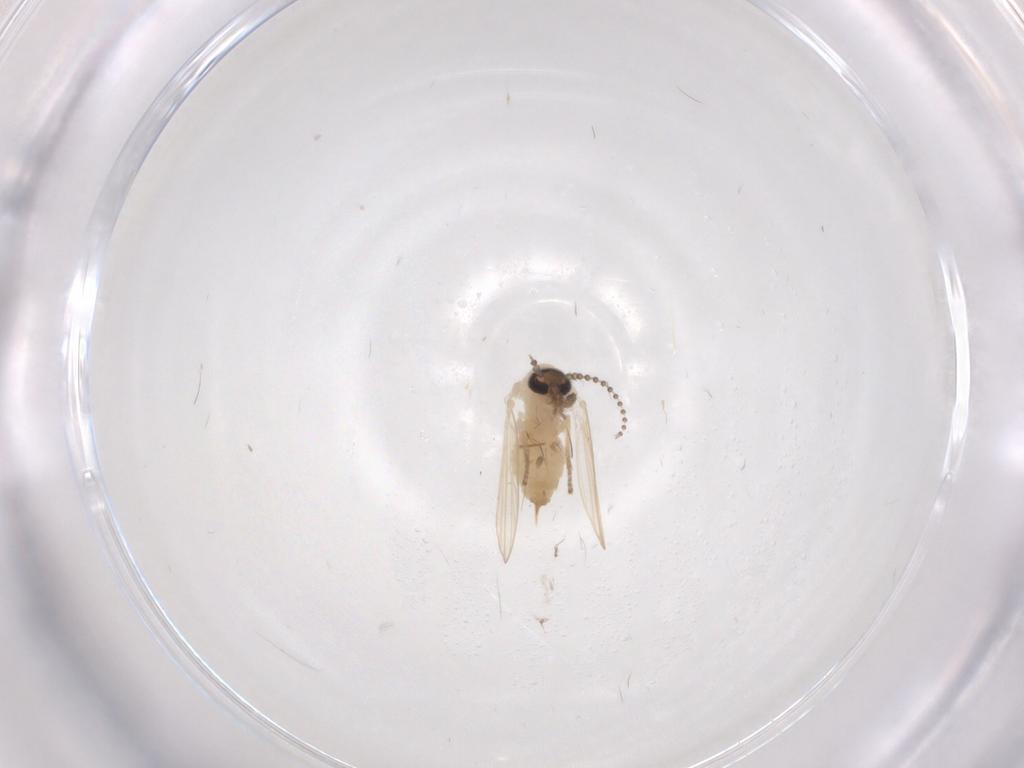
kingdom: Animalia
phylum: Arthropoda
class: Insecta
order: Diptera
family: Psychodidae
